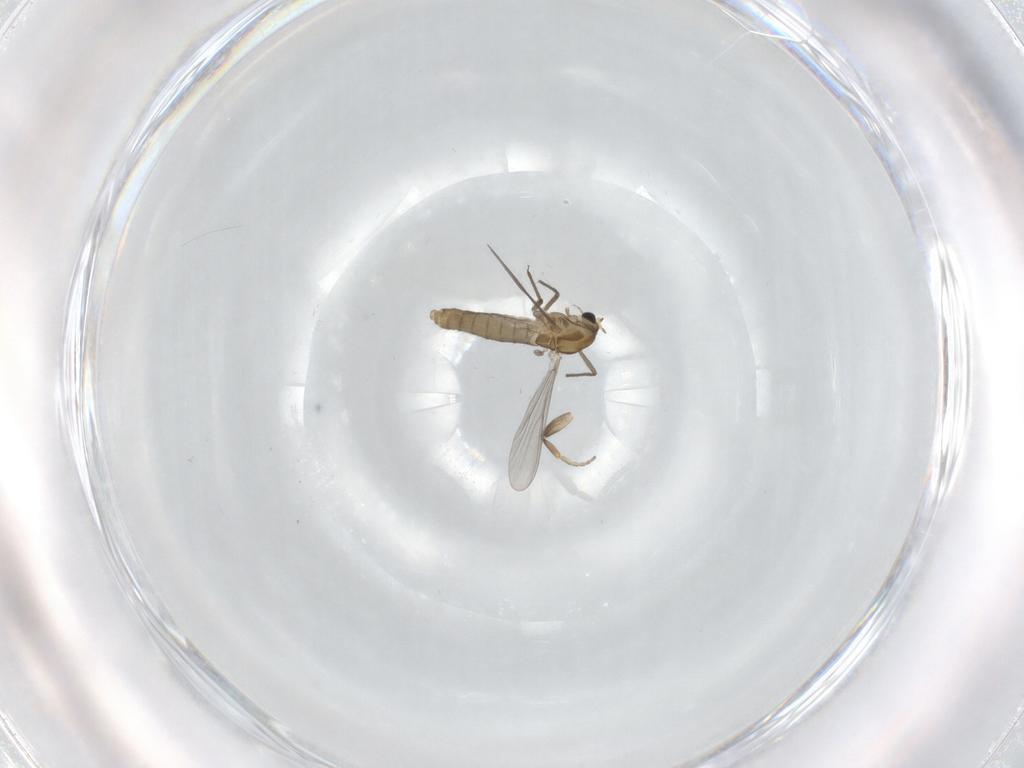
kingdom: Animalia
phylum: Arthropoda
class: Insecta
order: Diptera
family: Phoridae
